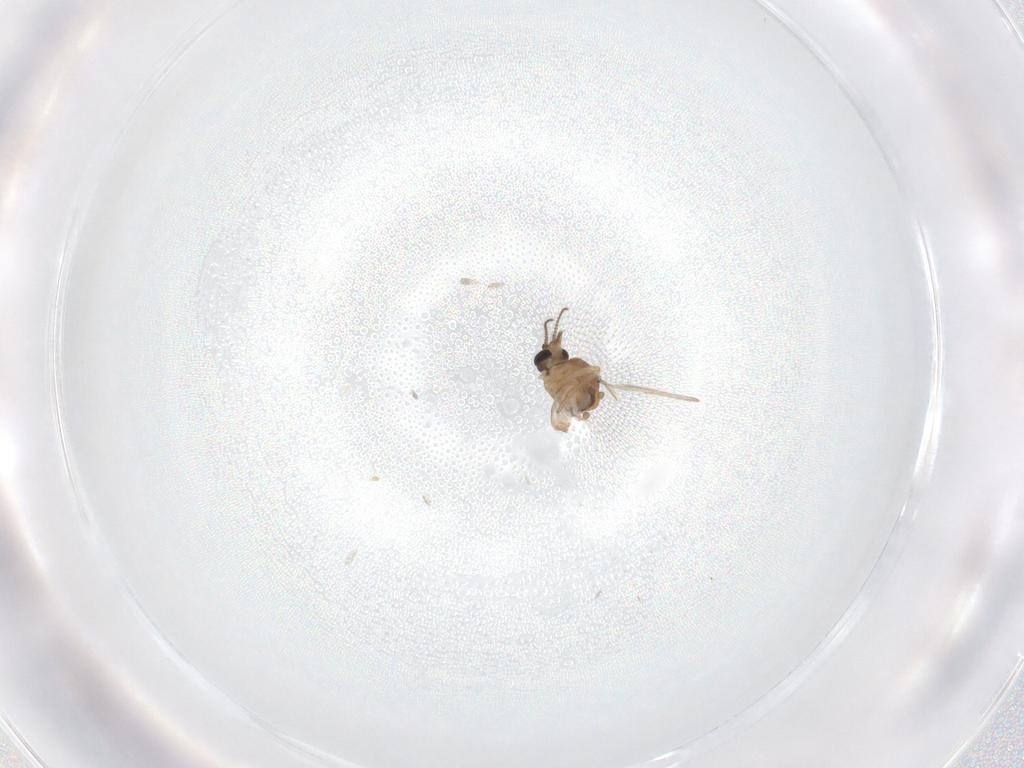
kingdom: Animalia
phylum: Arthropoda
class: Insecta
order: Diptera
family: Ceratopogonidae
